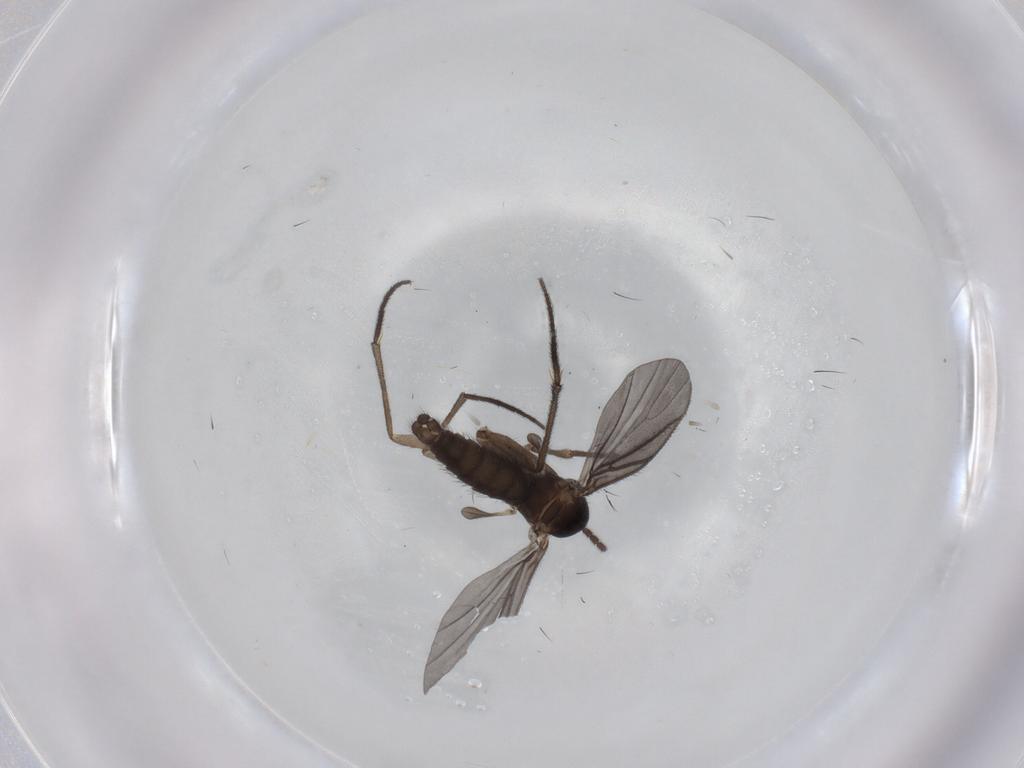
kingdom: Animalia
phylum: Arthropoda
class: Insecta
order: Diptera
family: Sciaridae
